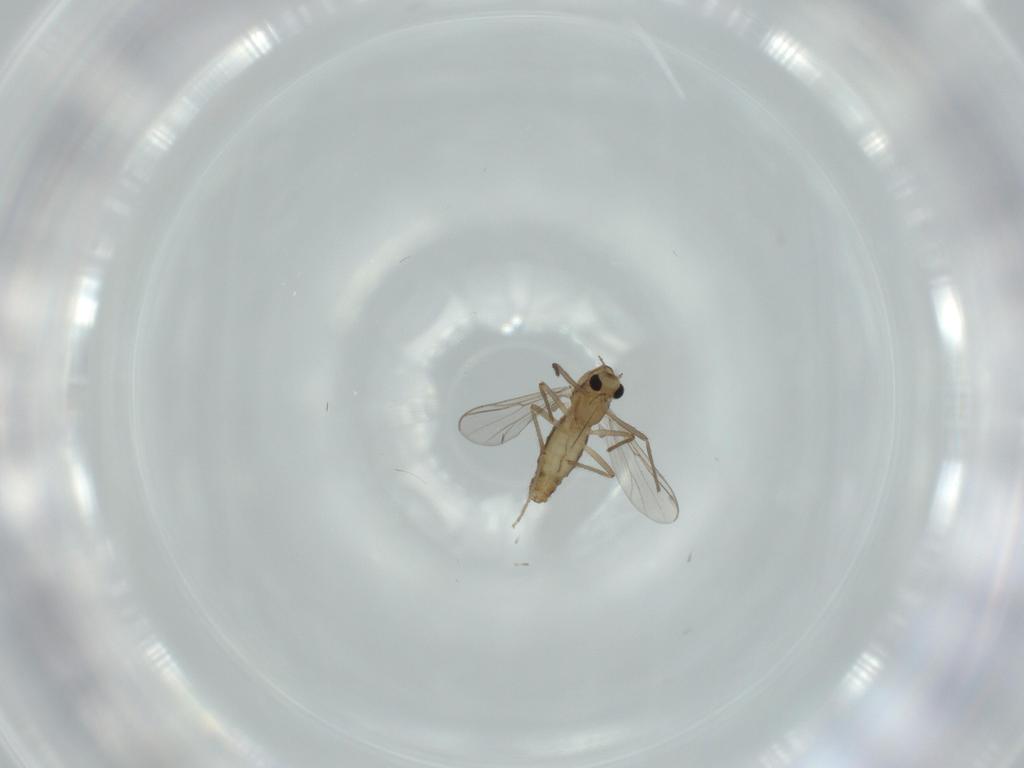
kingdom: Animalia
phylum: Arthropoda
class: Insecta
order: Diptera
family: Chironomidae
